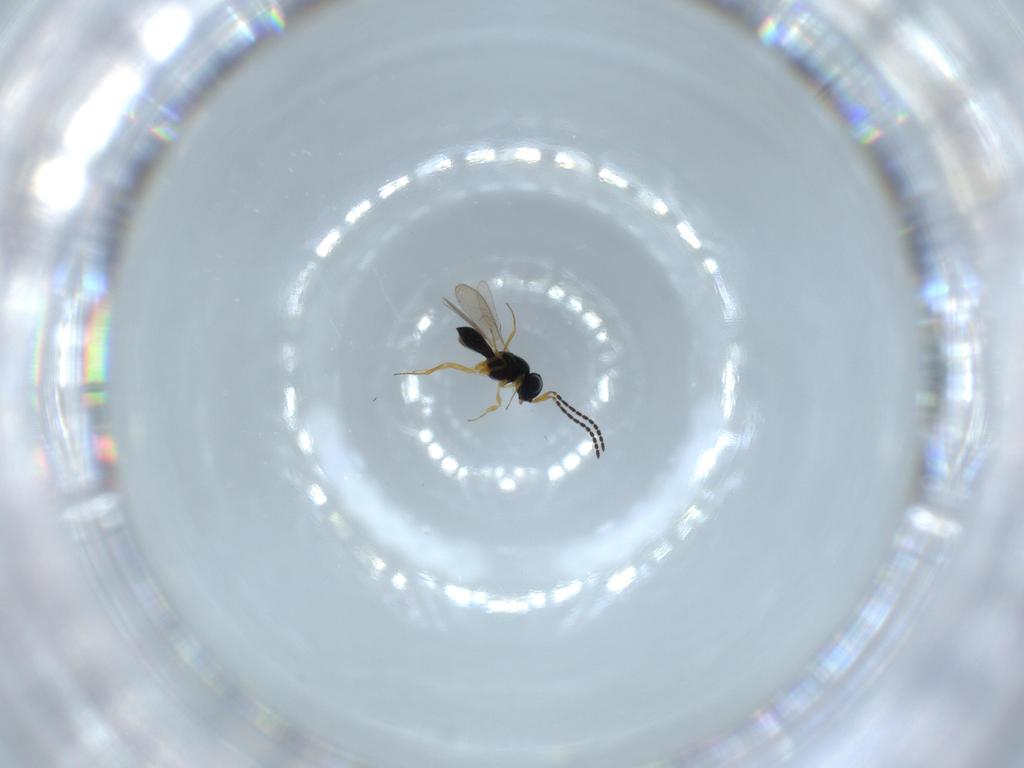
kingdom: Animalia
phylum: Arthropoda
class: Insecta
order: Hymenoptera
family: Scelionidae
